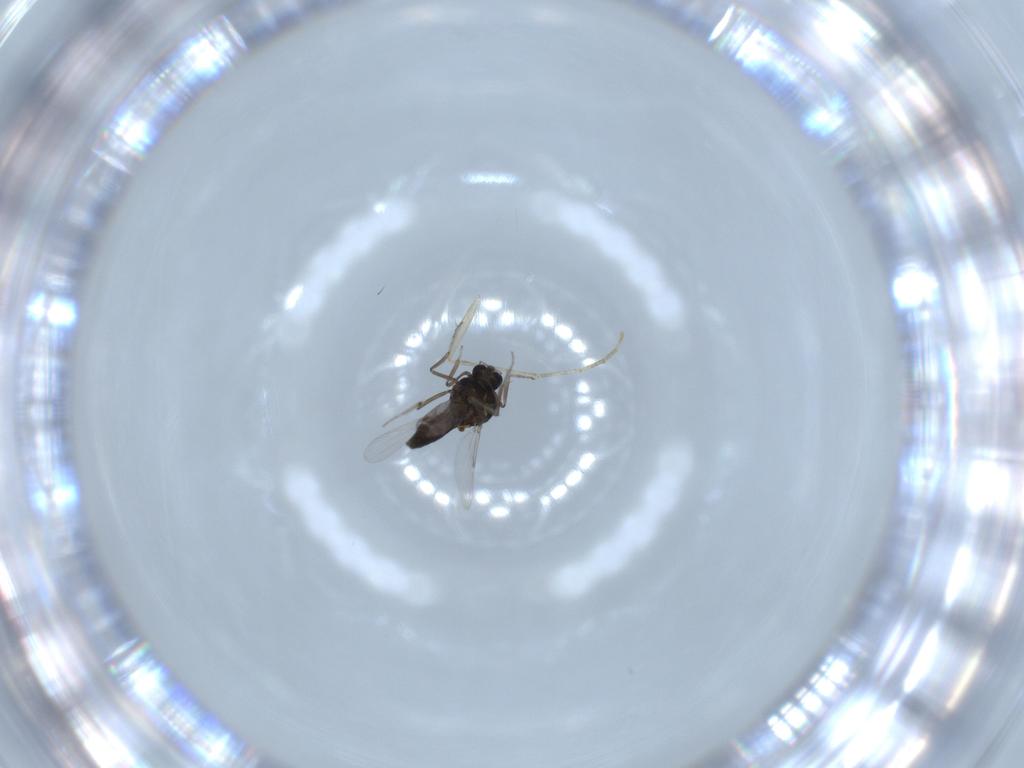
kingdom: Animalia
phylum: Arthropoda
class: Insecta
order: Diptera
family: Psychodidae
